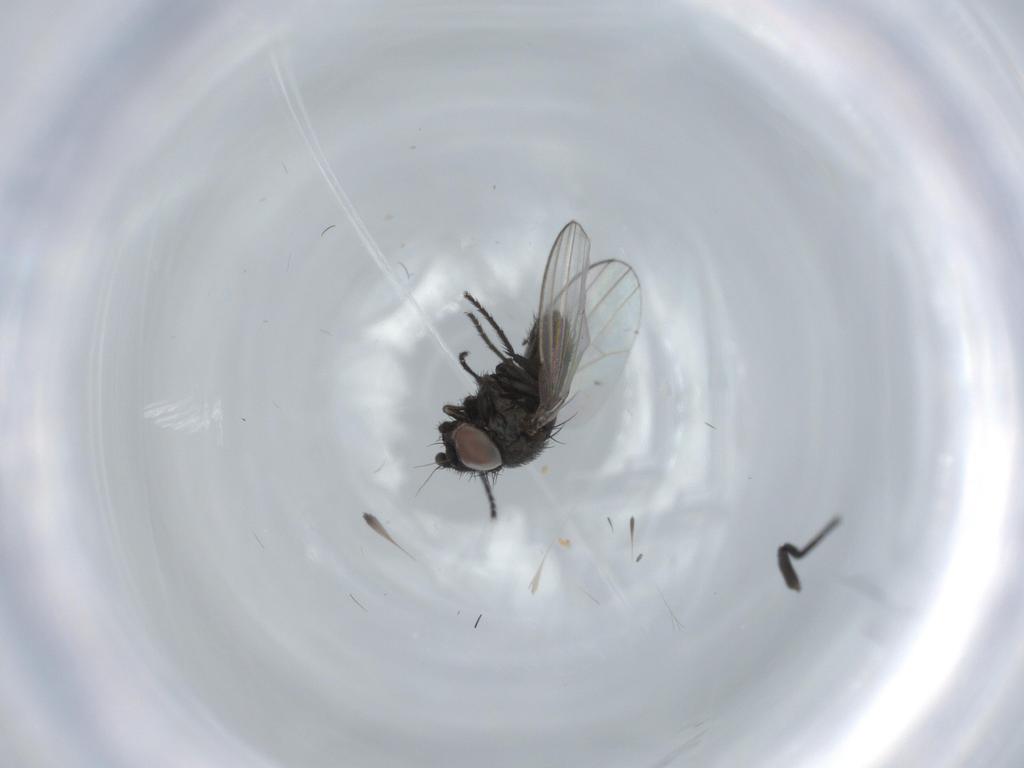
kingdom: Animalia
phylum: Arthropoda
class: Insecta
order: Diptera
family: Milichiidae
